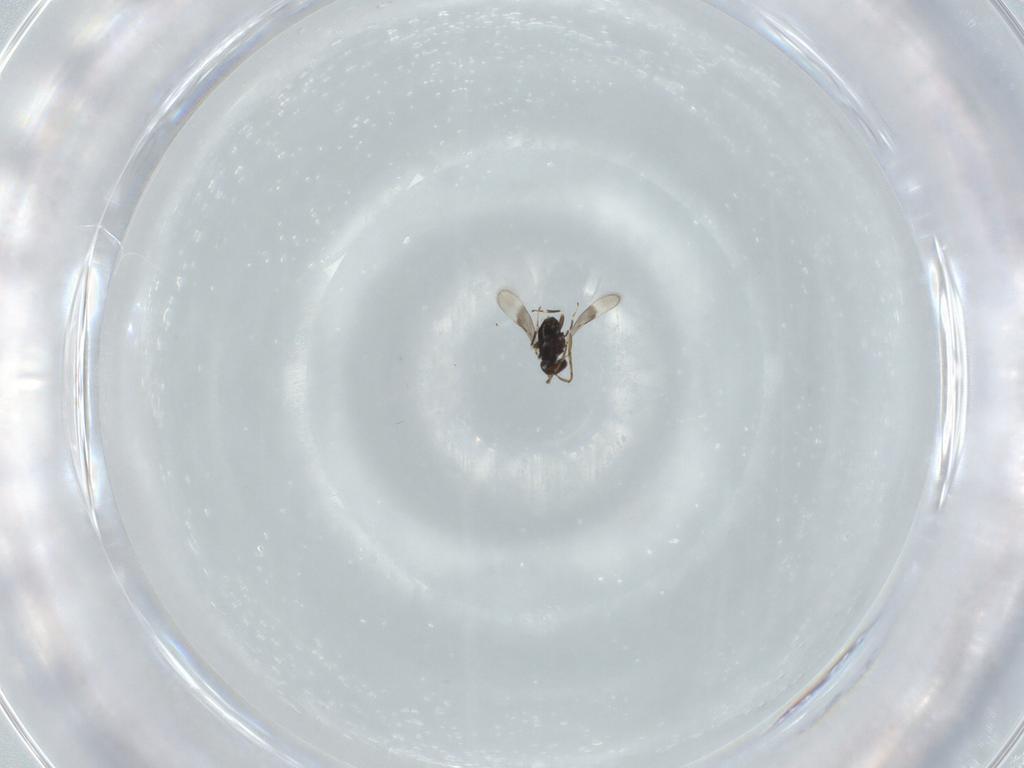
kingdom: Animalia
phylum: Arthropoda
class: Insecta
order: Hymenoptera
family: Azotidae
